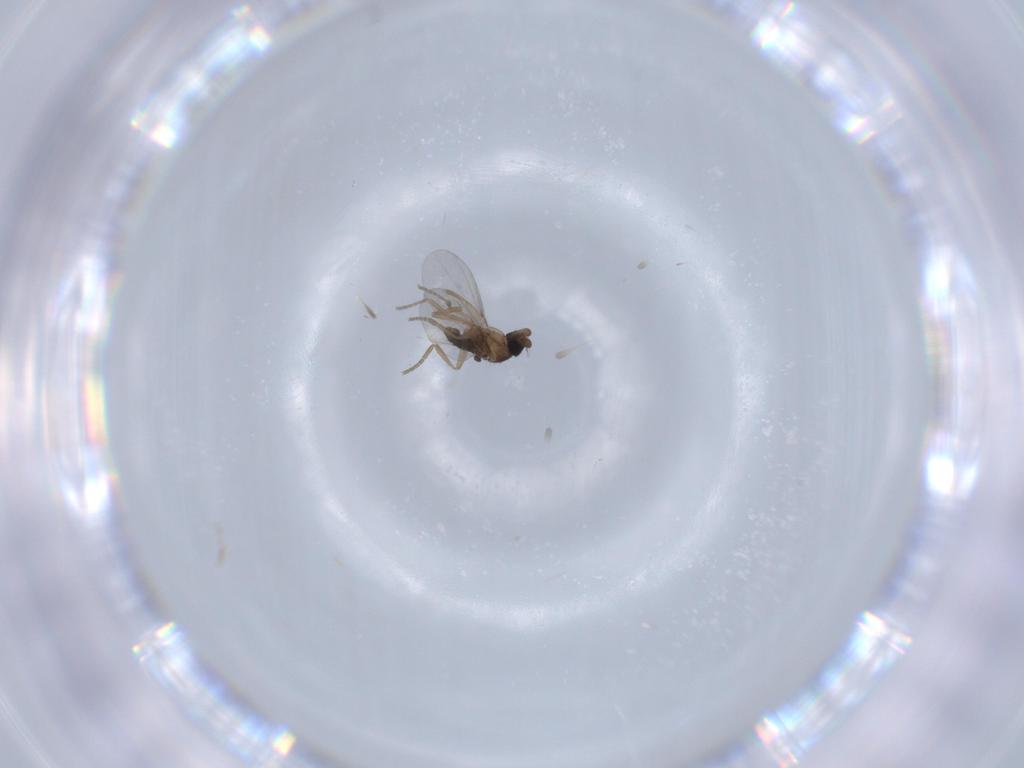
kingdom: Animalia
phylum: Arthropoda
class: Insecta
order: Diptera
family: Phoridae
